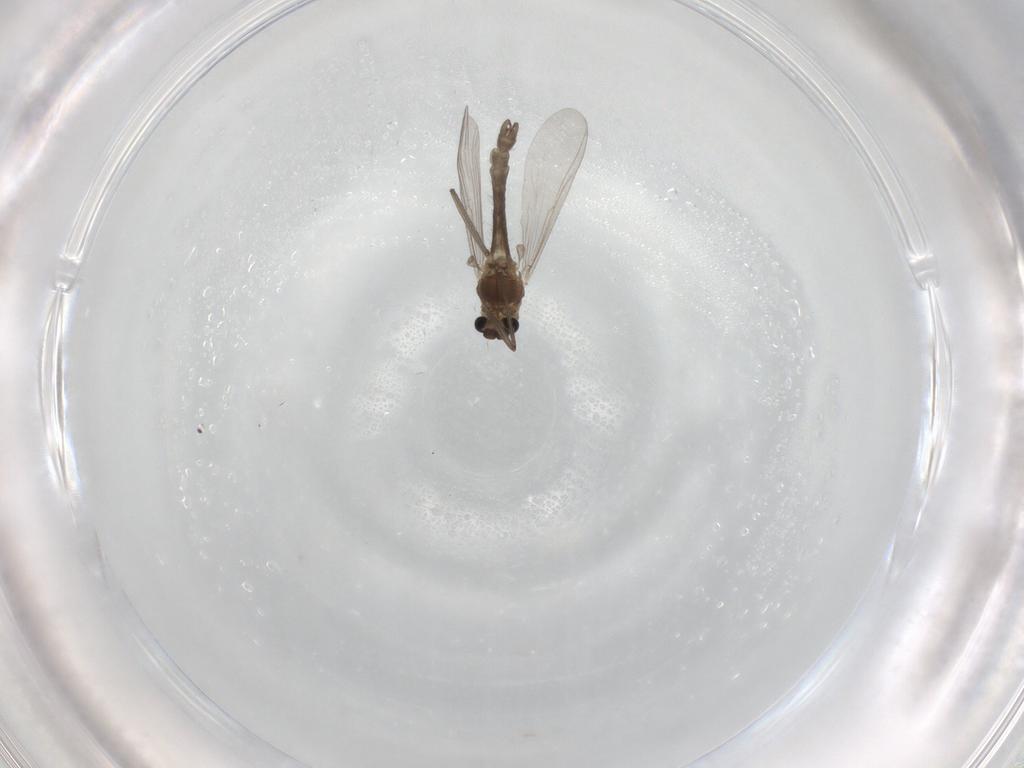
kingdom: Animalia
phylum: Arthropoda
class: Insecta
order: Diptera
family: Chironomidae
